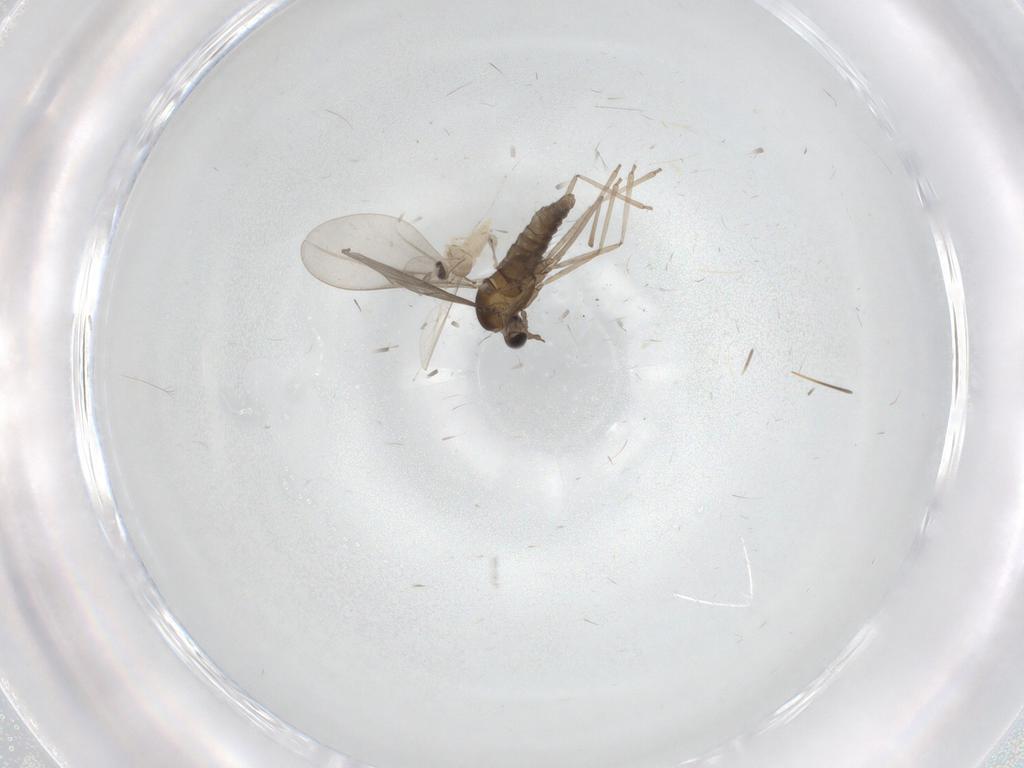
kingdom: Animalia
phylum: Arthropoda
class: Insecta
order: Diptera
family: Cecidomyiidae
